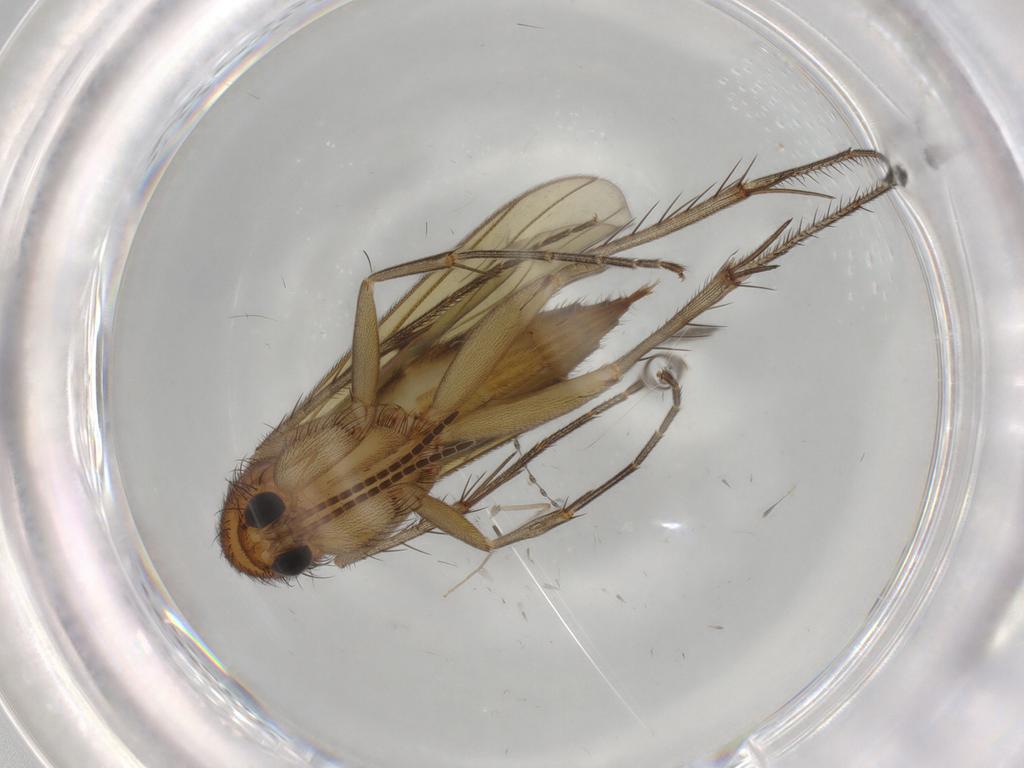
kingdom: Animalia
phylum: Arthropoda
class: Insecta
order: Diptera
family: Mycetophilidae
